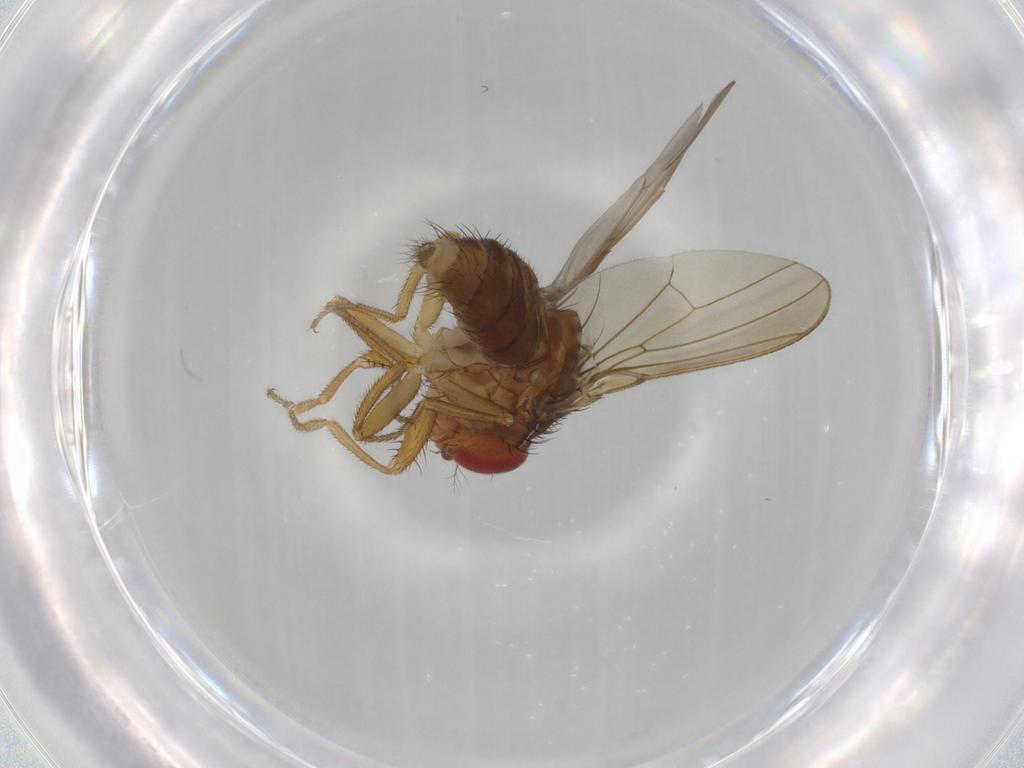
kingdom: Animalia
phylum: Arthropoda
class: Insecta
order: Diptera
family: Drosophilidae
